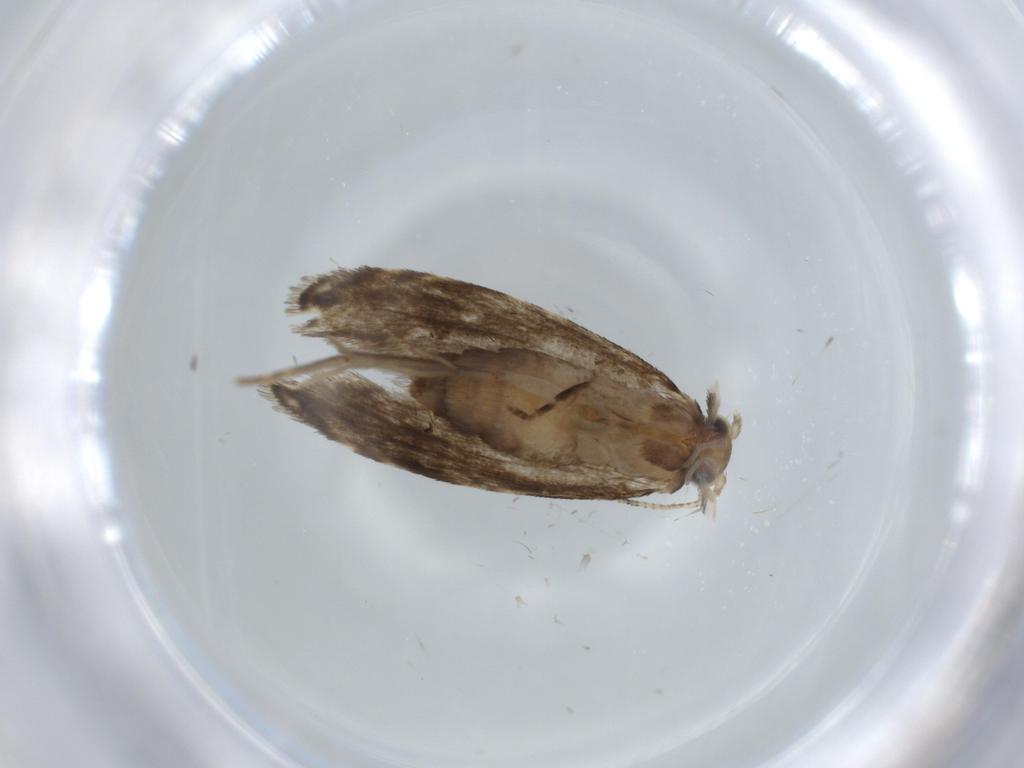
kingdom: Animalia
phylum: Arthropoda
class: Insecta
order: Lepidoptera
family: Tineidae
